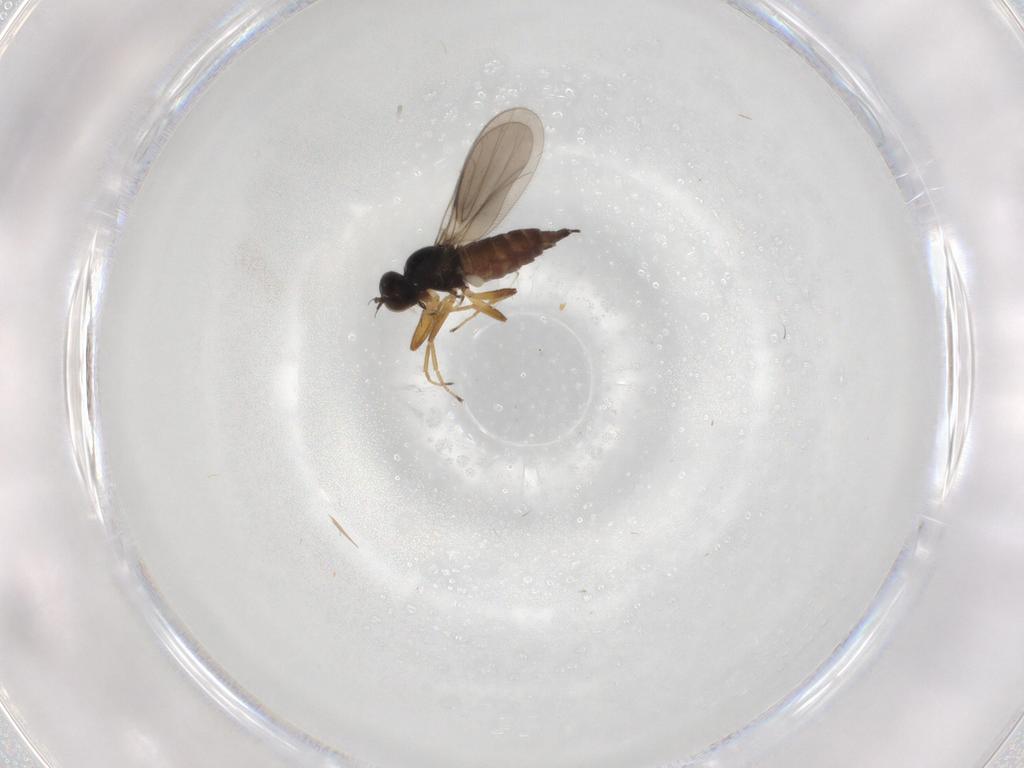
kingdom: Animalia
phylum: Arthropoda
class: Insecta
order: Diptera
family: Hybotidae
